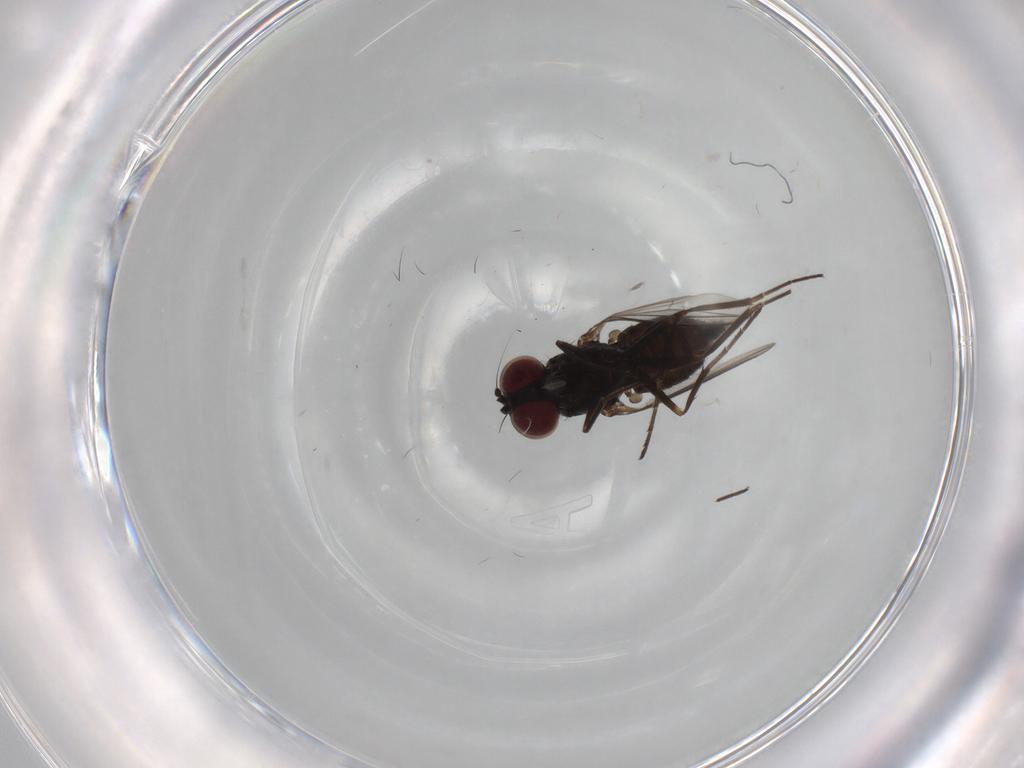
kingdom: Animalia
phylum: Arthropoda
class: Insecta
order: Diptera
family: Dolichopodidae
